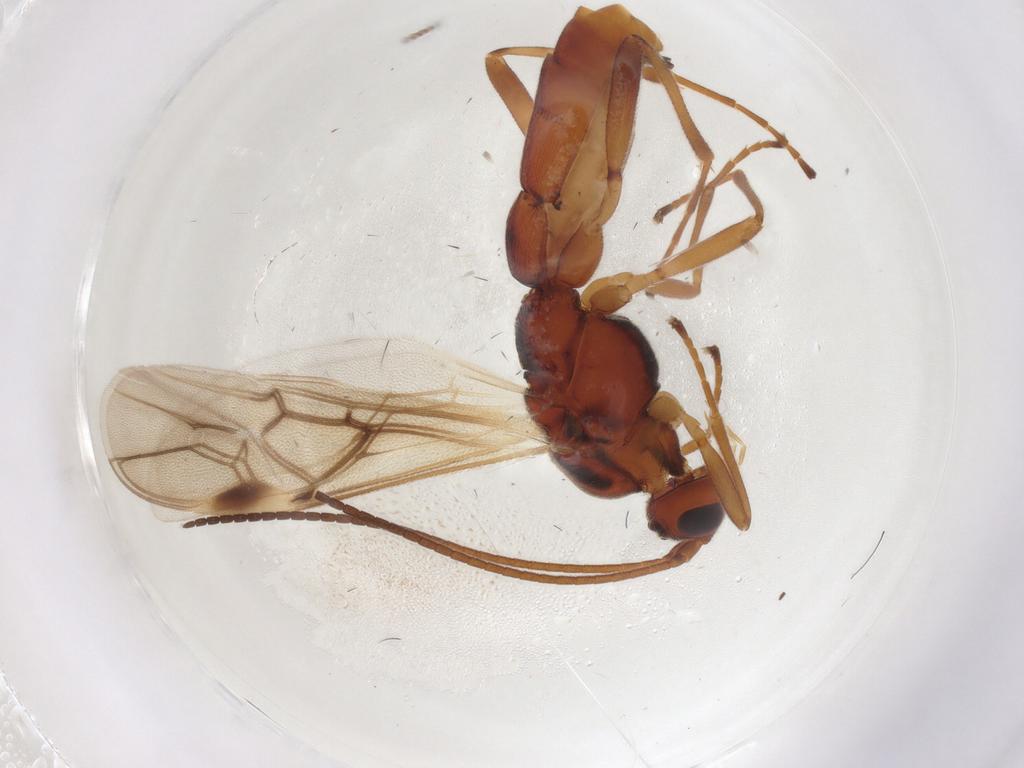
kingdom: Animalia
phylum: Arthropoda
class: Insecta
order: Hymenoptera
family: Braconidae
